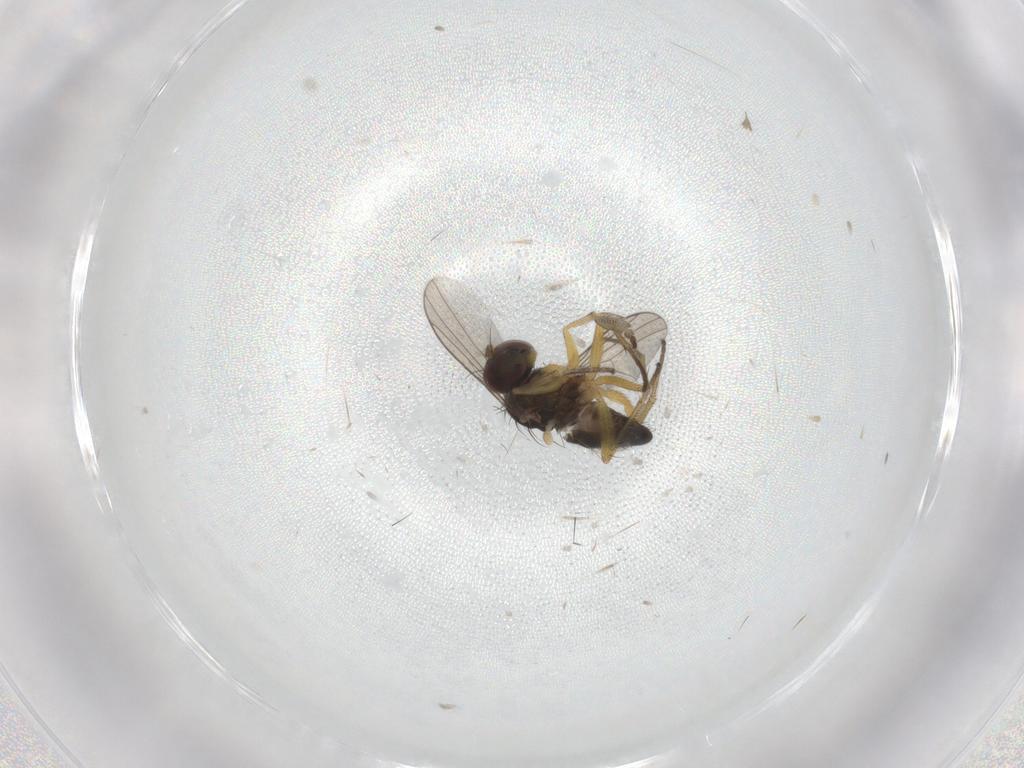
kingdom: Animalia
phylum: Arthropoda
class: Insecta
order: Diptera
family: Dolichopodidae
